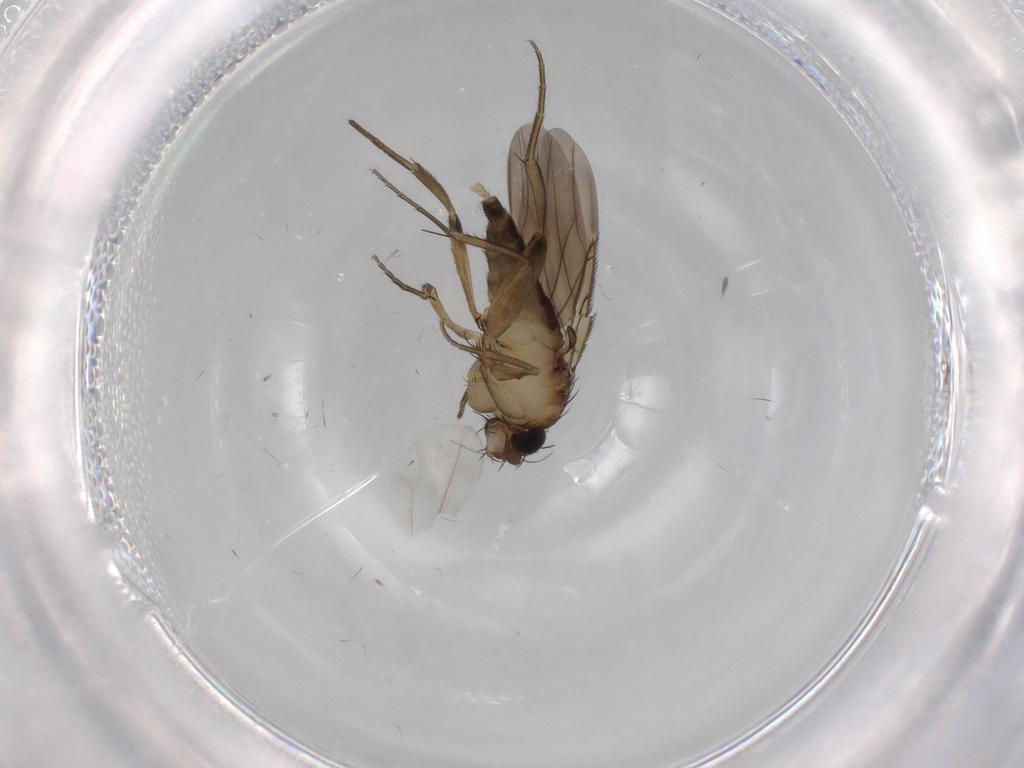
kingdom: Animalia
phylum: Arthropoda
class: Insecta
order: Diptera
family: Phoridae
